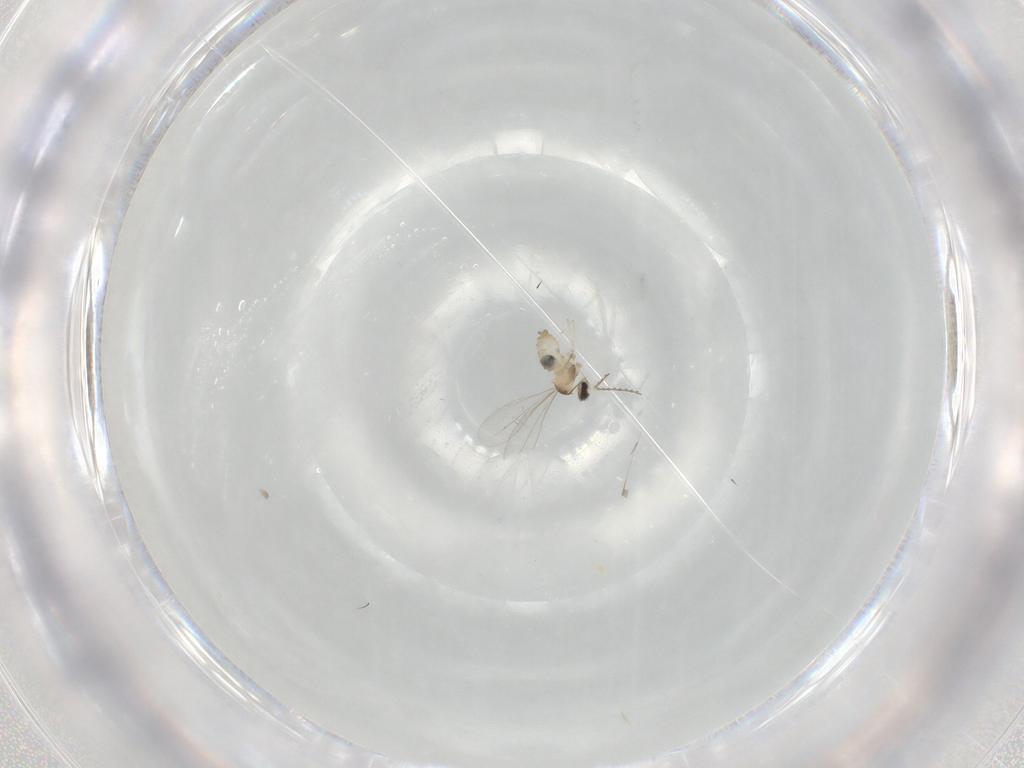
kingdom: Animalia
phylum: Arthropoda
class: Insecta
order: Diptera
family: Cecidomyiidae
